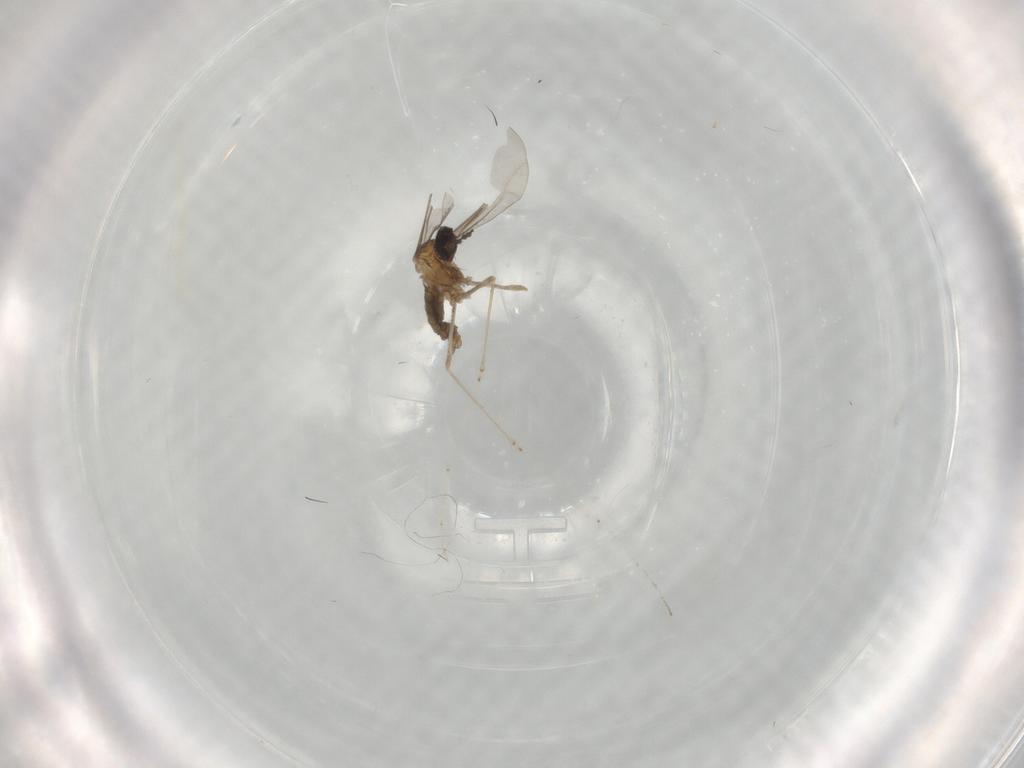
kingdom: Animalia
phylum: Arthropoda
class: Insecta
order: Diptera
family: Cecidomyiidae
